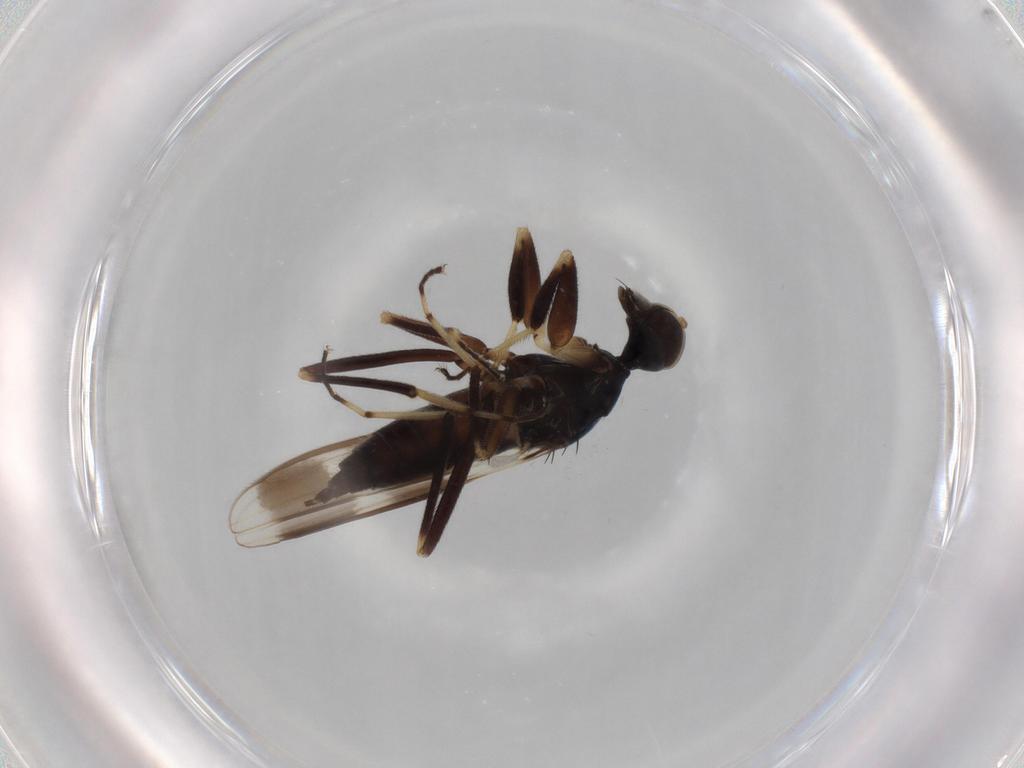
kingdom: Animalia
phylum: Arthropoda
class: Insecta
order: Diptera
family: Hybotidae
